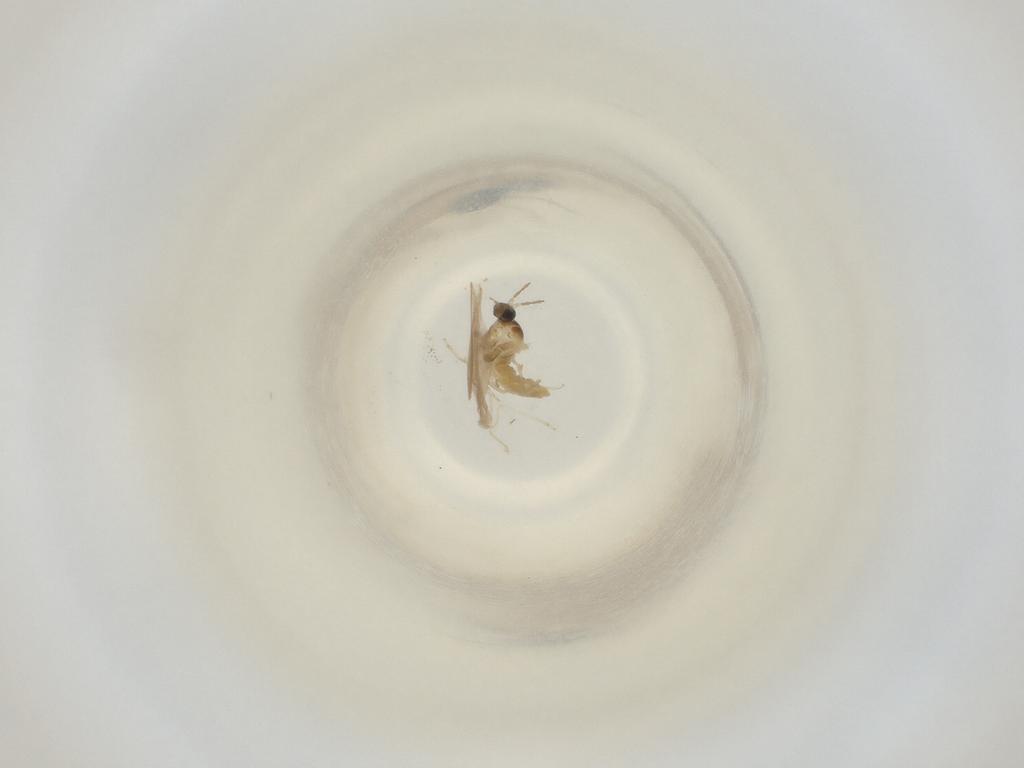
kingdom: Animalia
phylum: Arthropoda
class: Insecta
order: Diptera
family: Cecidomyiidae
